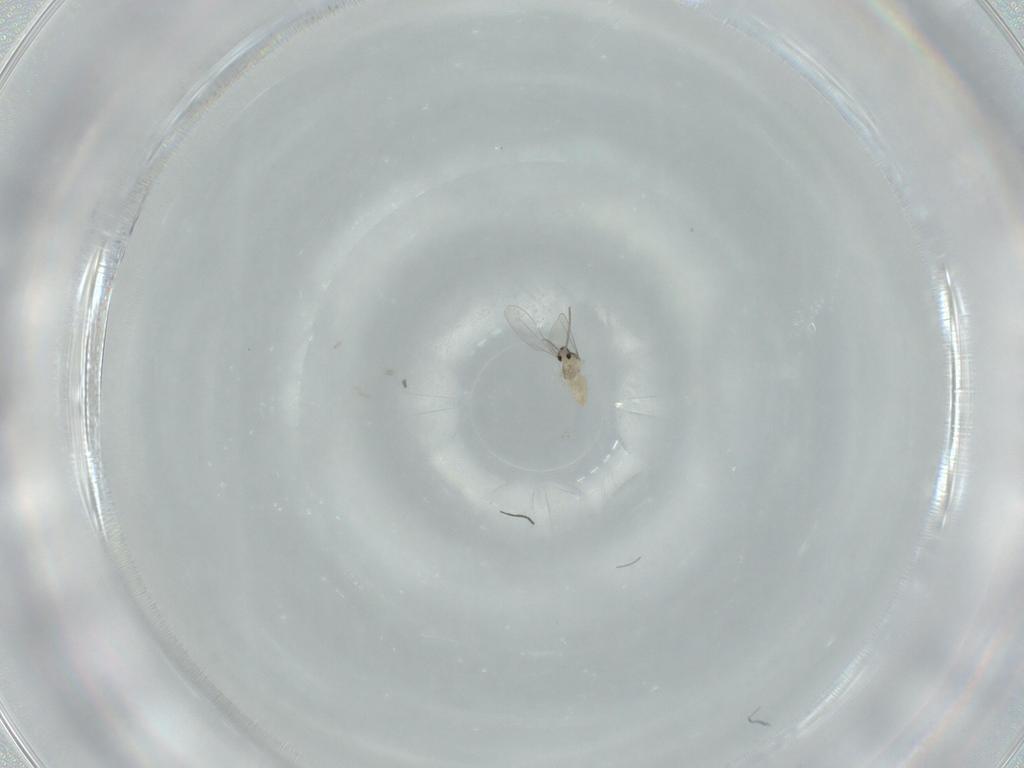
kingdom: Animalia
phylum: Arthropoda
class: Insecta
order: Diptera
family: Cecidomyiidae
